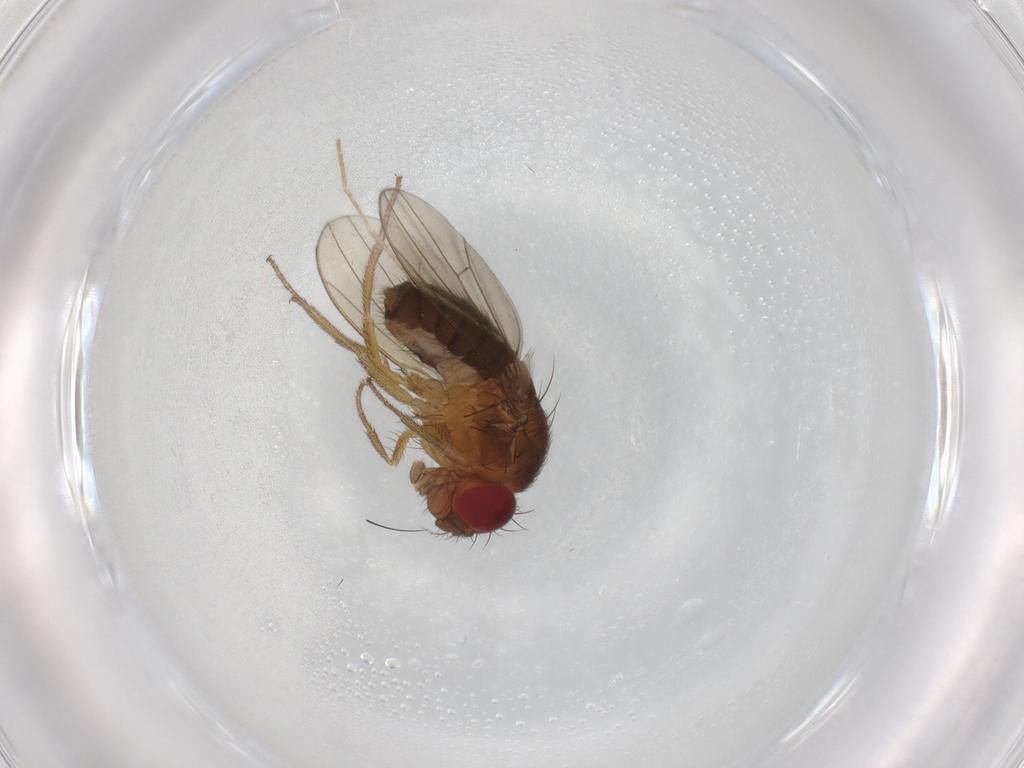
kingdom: Animalia
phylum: Arthropoda
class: Insecta
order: Diptera
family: Drosophilidae
